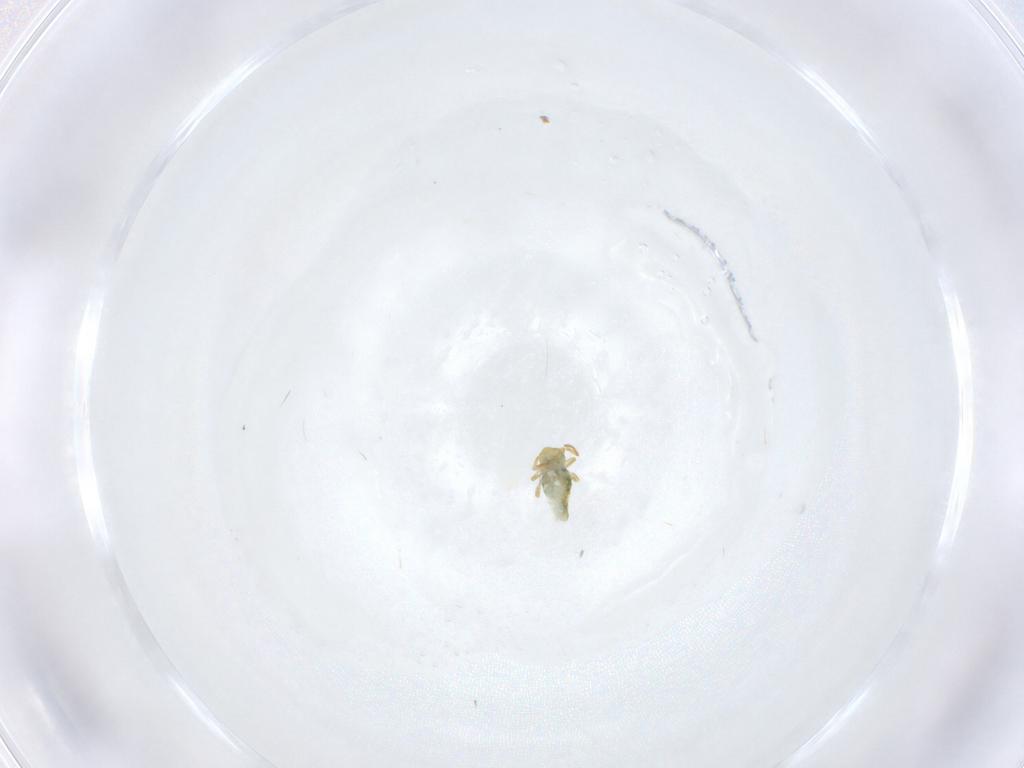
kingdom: Animalia
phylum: Arthropoda
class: Collembola
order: Symphypleona
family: Katiannidae
